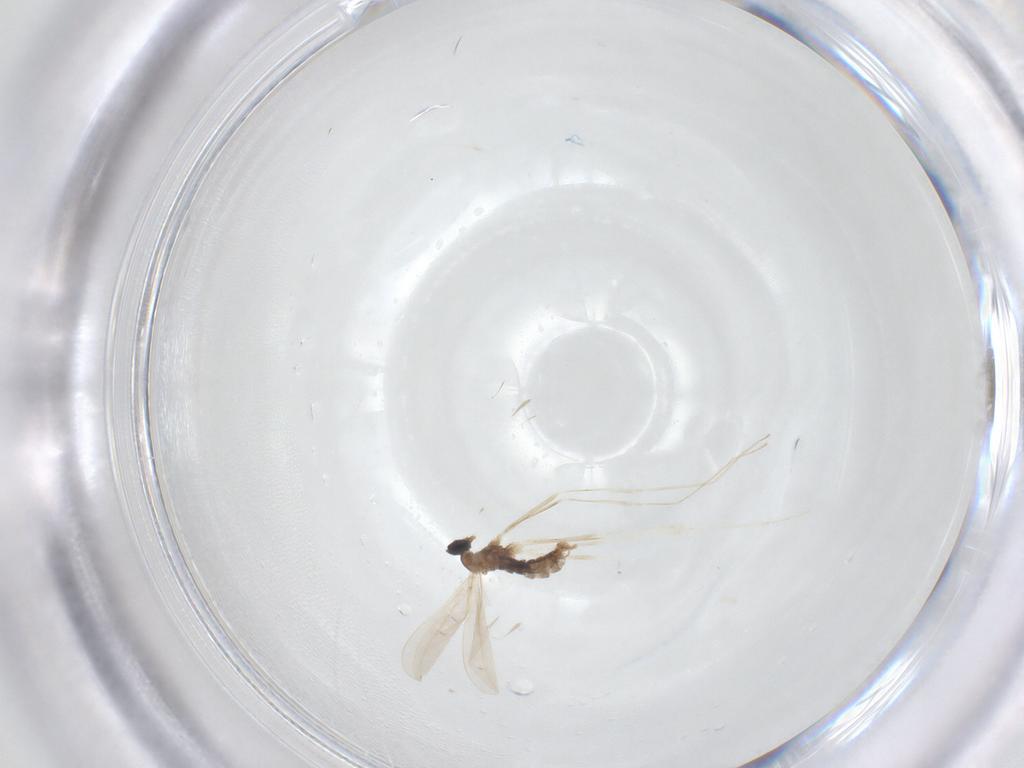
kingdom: Animalia
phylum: Arthropoda
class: Insecta
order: Diptera
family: Cecidomyiidae
